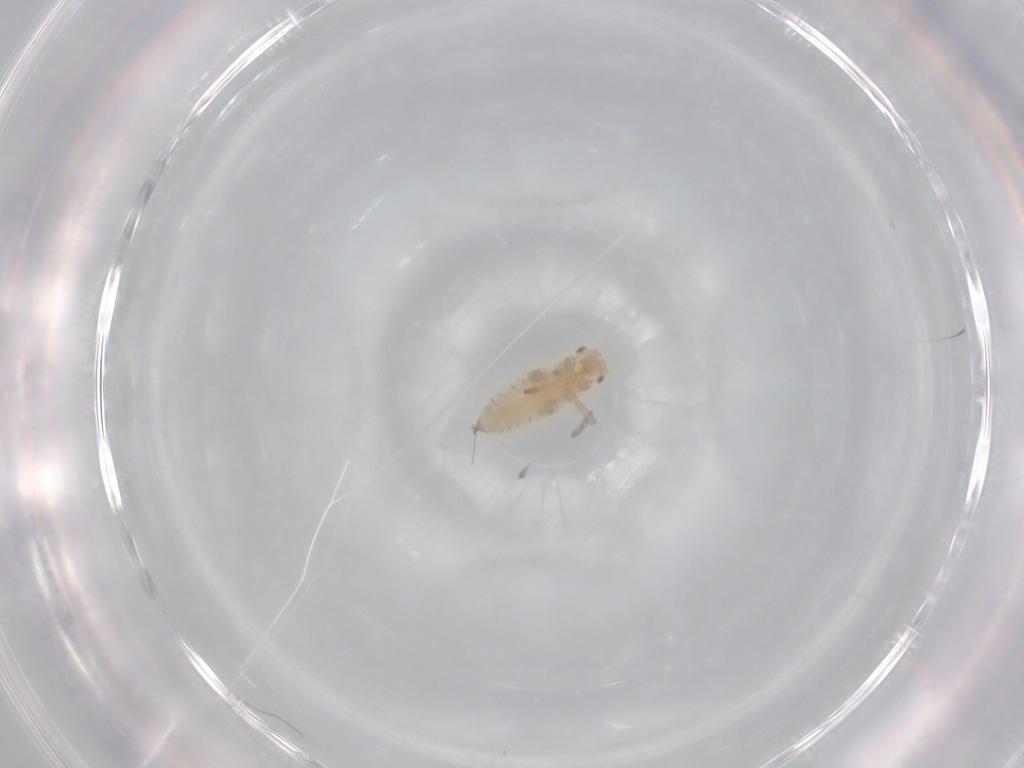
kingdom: Animalia
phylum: Arthropoda
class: Insecta
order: Hemiptera
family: Aphididae
